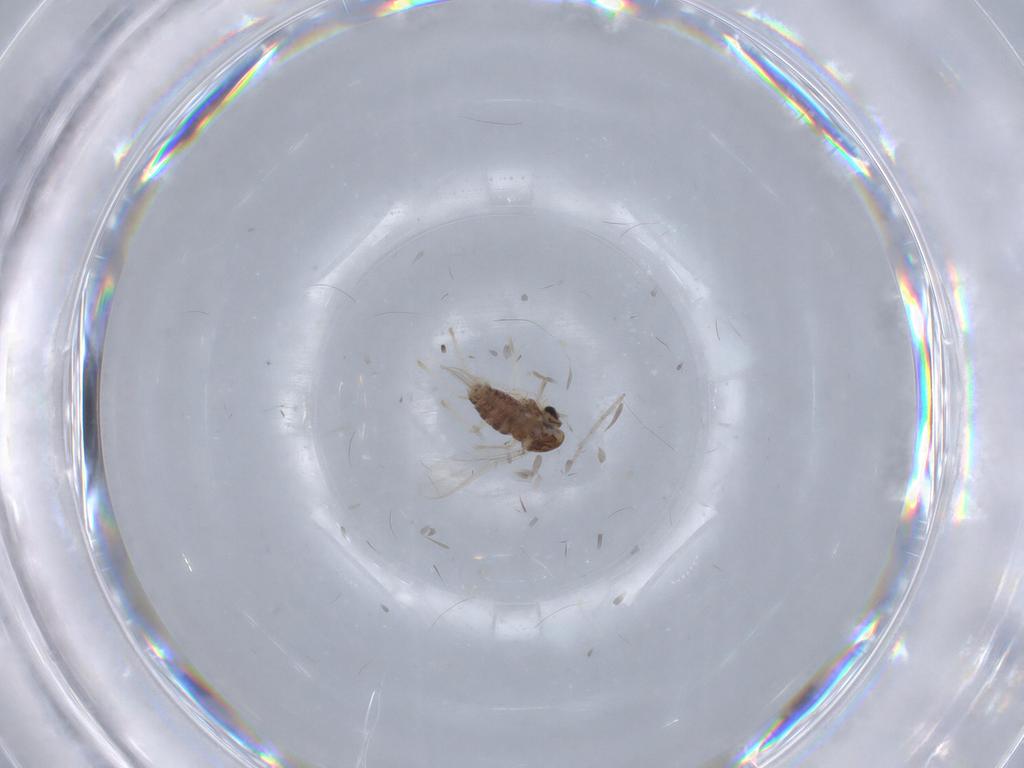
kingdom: Animalia
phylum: Arthropoda
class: Insecta
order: Diptera
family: Chironomidae
